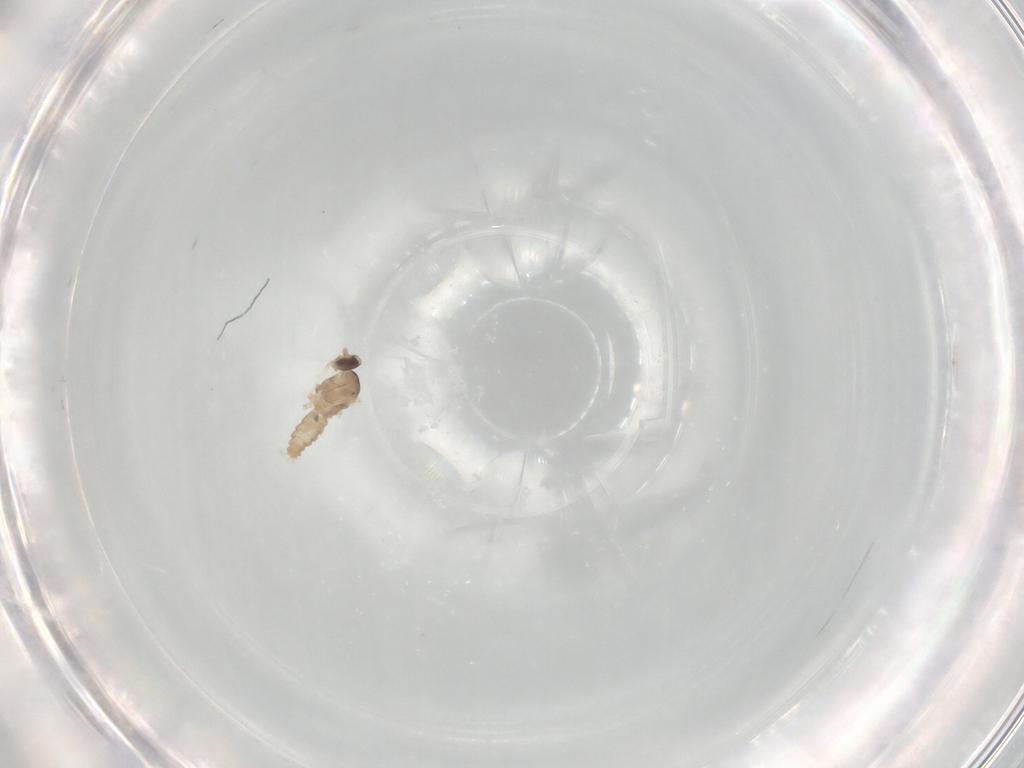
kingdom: Animalia
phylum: Arthropoda
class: Insecta
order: Diptera
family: Cecidomyiidae
